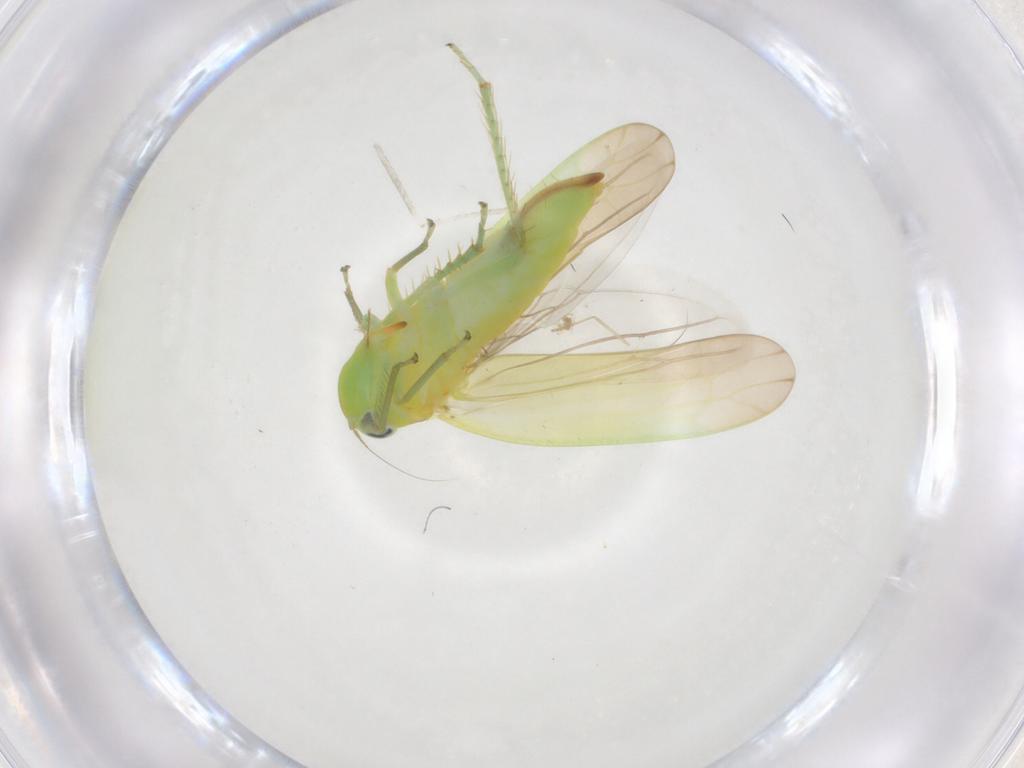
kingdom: Animalia
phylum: Arthropoda
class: Insecta
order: Hemiptera
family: Cicadellidae
